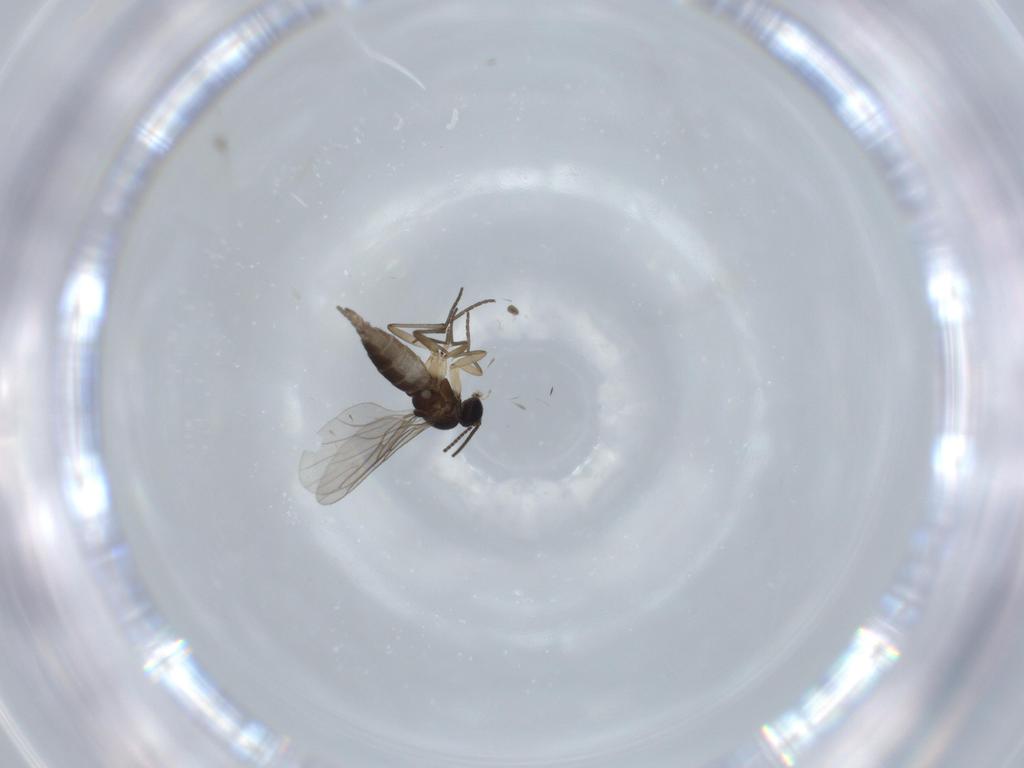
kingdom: Animalia
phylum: Arthropoda
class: Insecta
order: Diptera
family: Sciaridae
